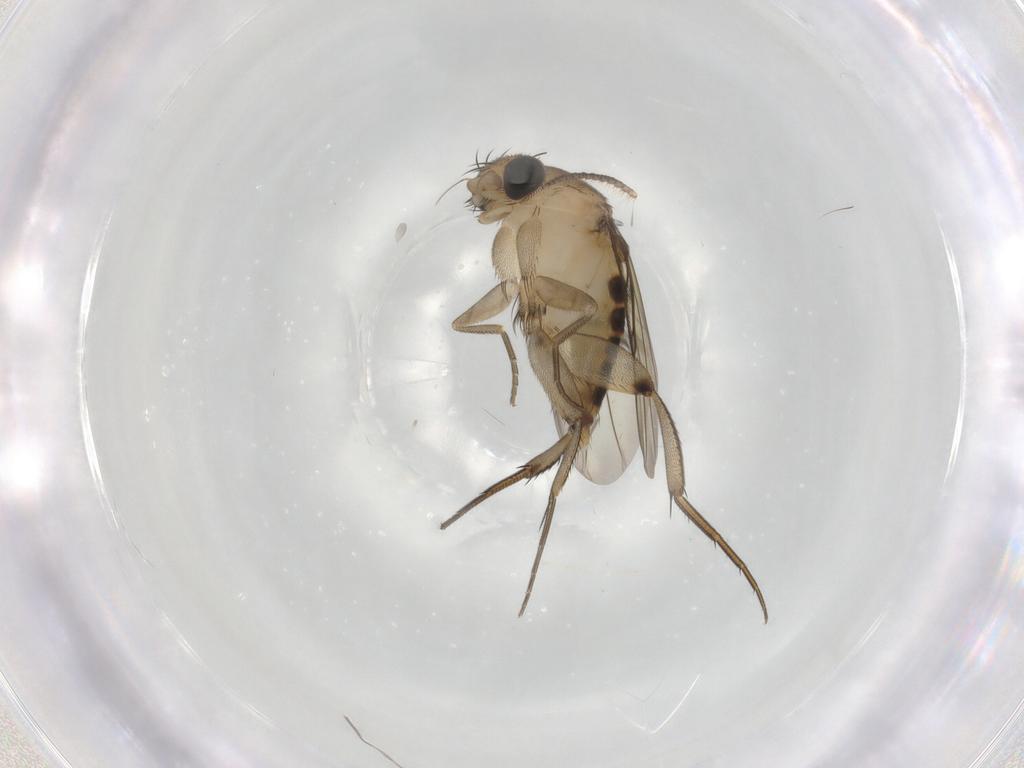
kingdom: Animalia
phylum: Arthropoda
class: Insecta
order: Diptera
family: Phoridae
